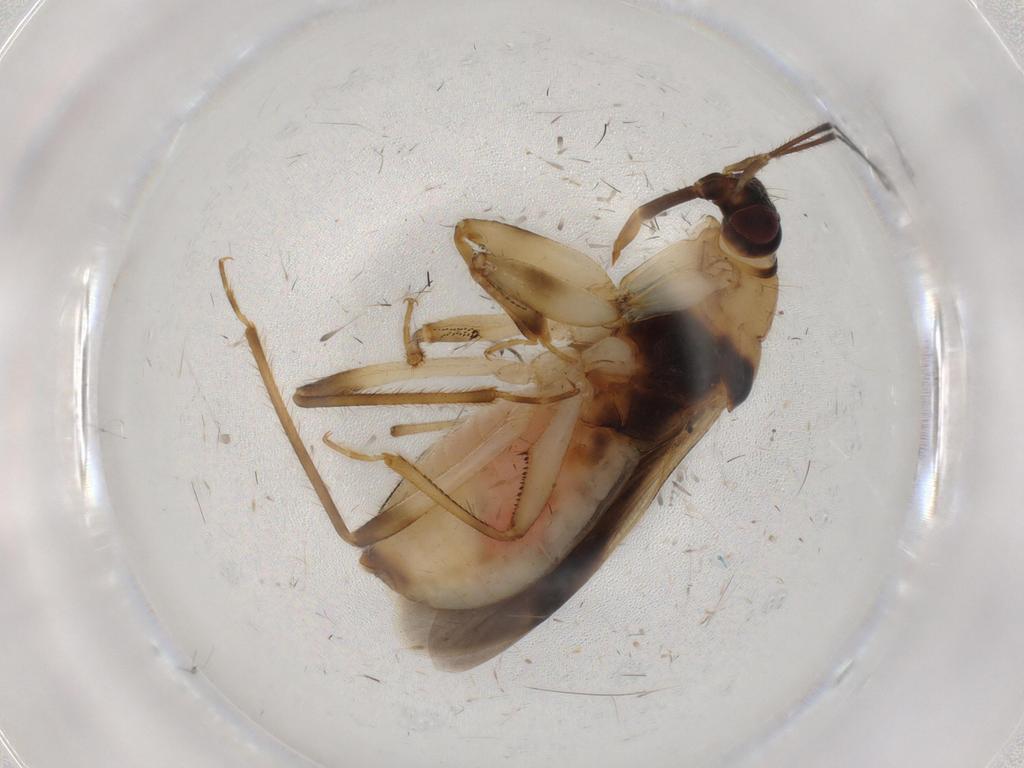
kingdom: Animalia
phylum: Arthropoda
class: Insecta
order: Hemiptera
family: Nabidae
